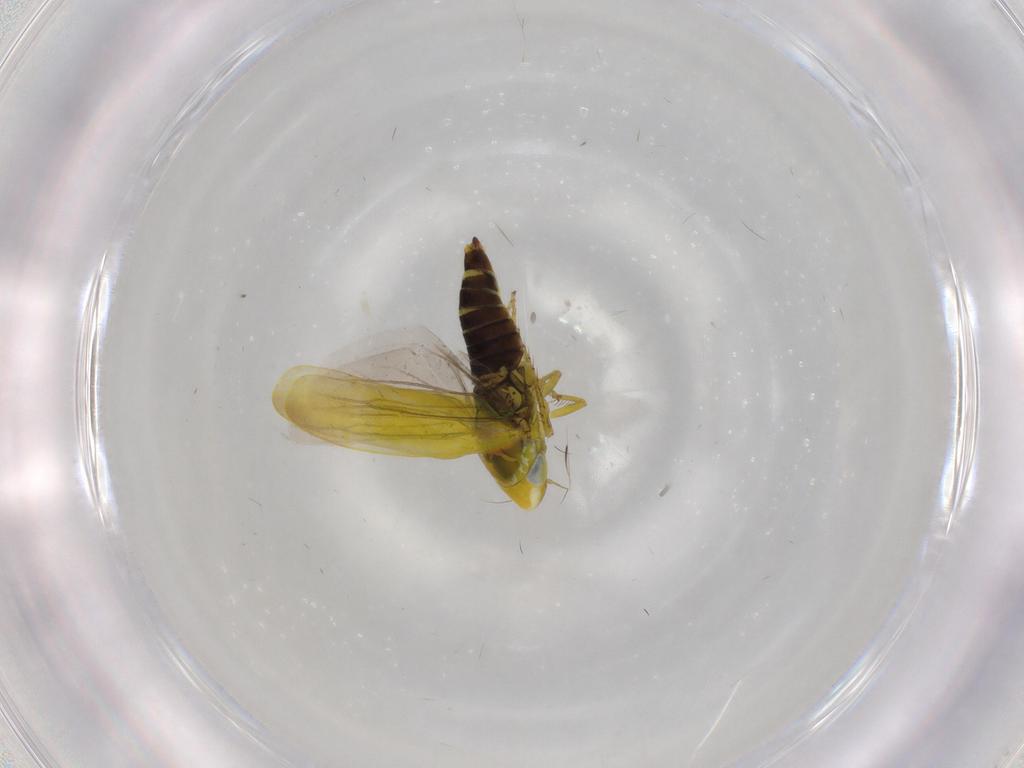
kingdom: Animalia
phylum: Arthropoda
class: Insecta
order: Hemiptera
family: Cicadellidae
